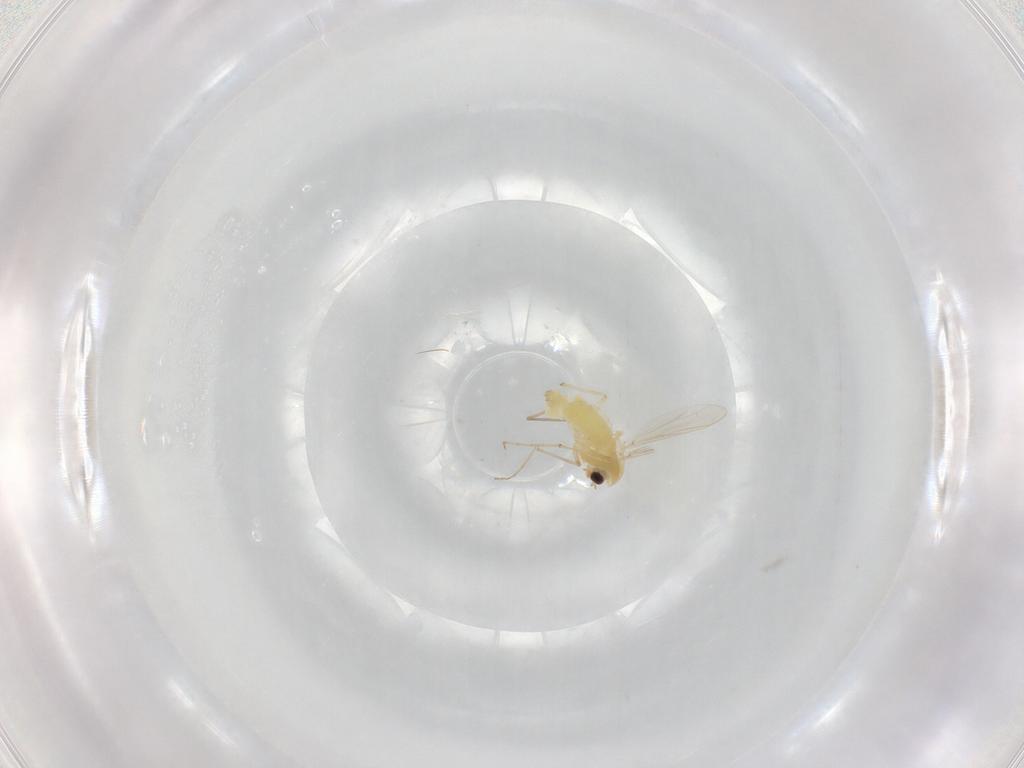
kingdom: Animalia
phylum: Arthropoda
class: Insecta
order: Diptera
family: Chironomidae
